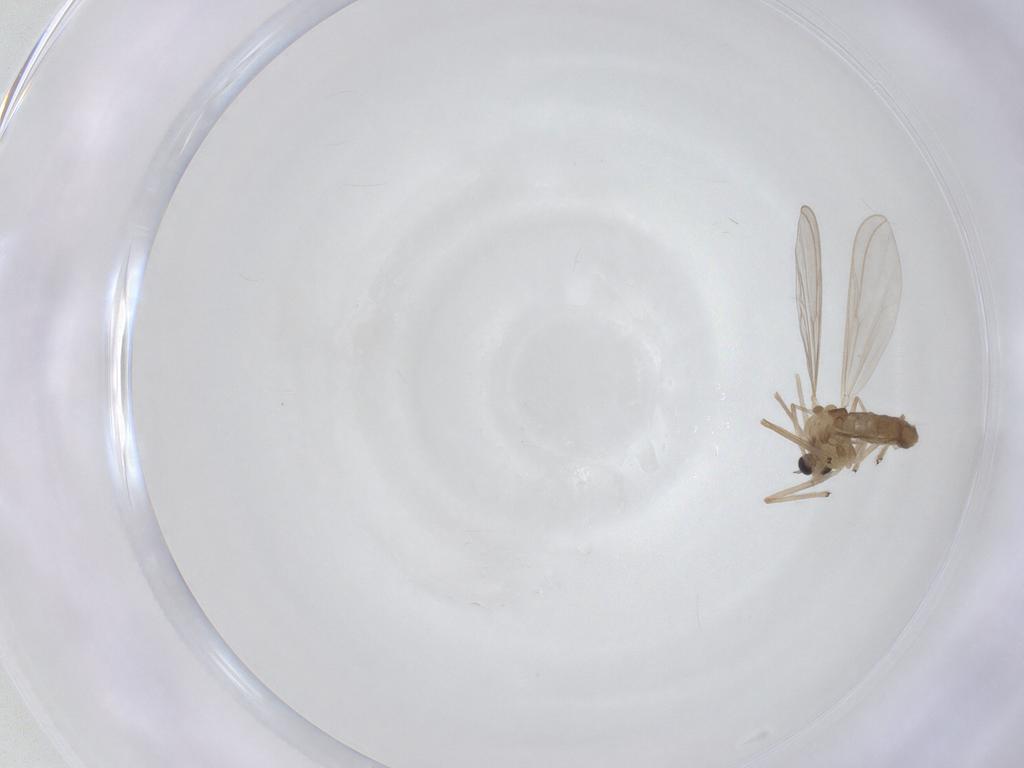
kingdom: Animalia
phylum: Arthropoda
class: Insecta
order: Diptera
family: Chironomidae
